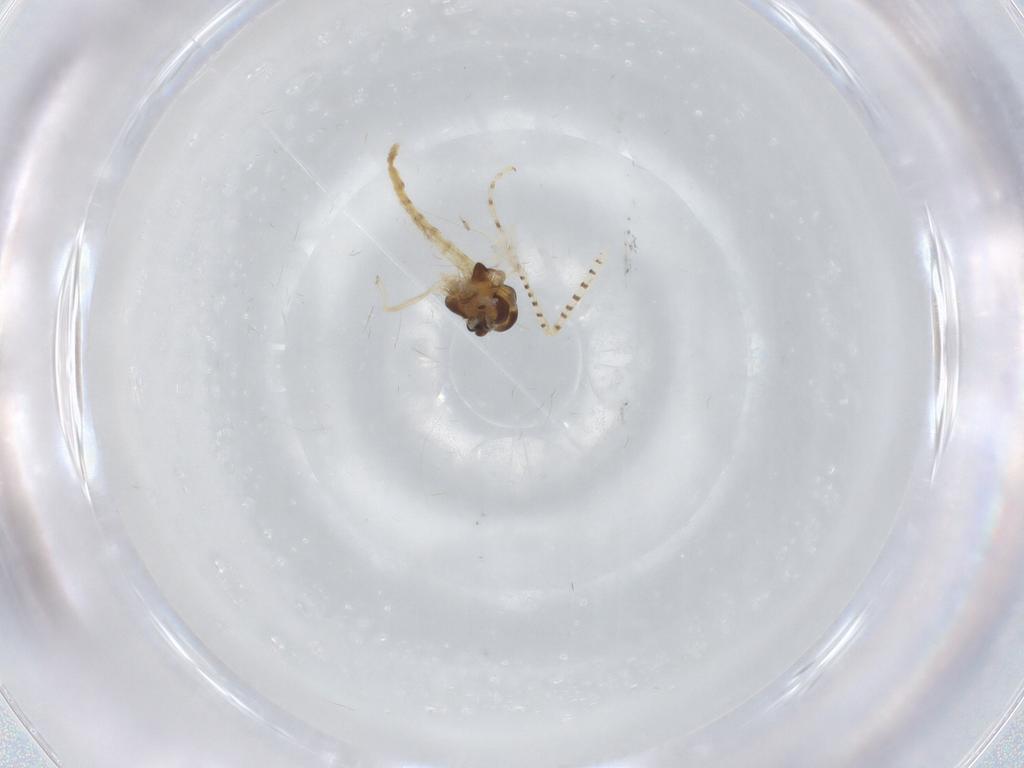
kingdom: Animalia
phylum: Arthropoda
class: Insecta
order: Diptera
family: Chironomidae
